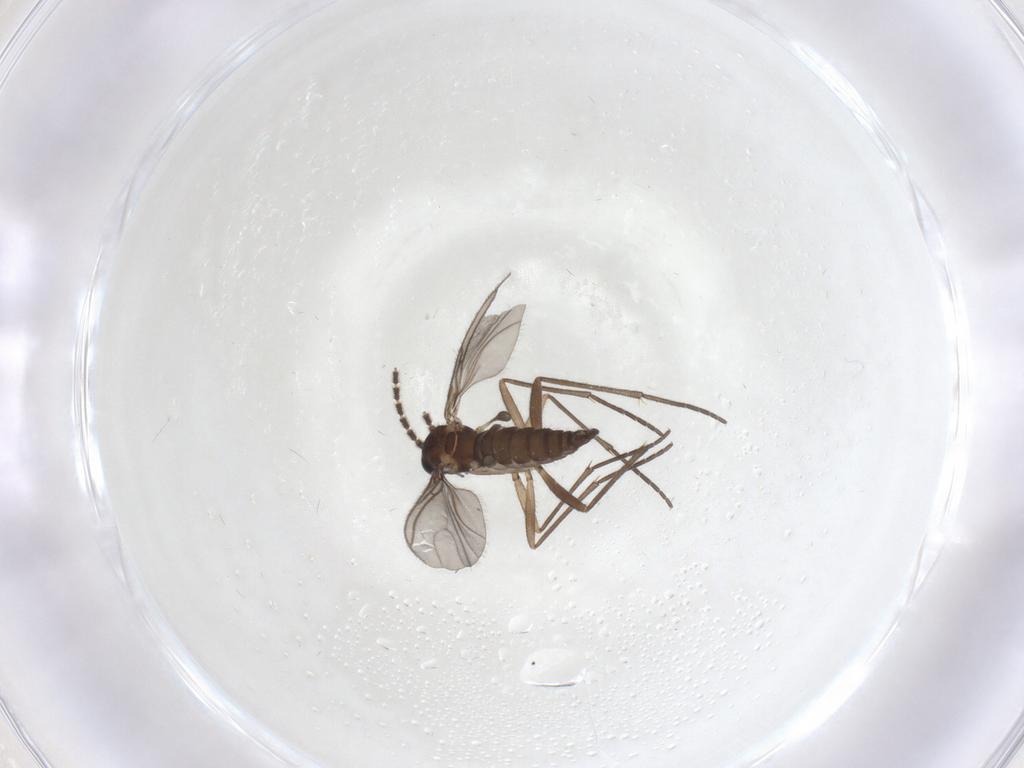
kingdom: Animalia
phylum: Arthropoda
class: Insecta
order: Diptera
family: Sciaridae
